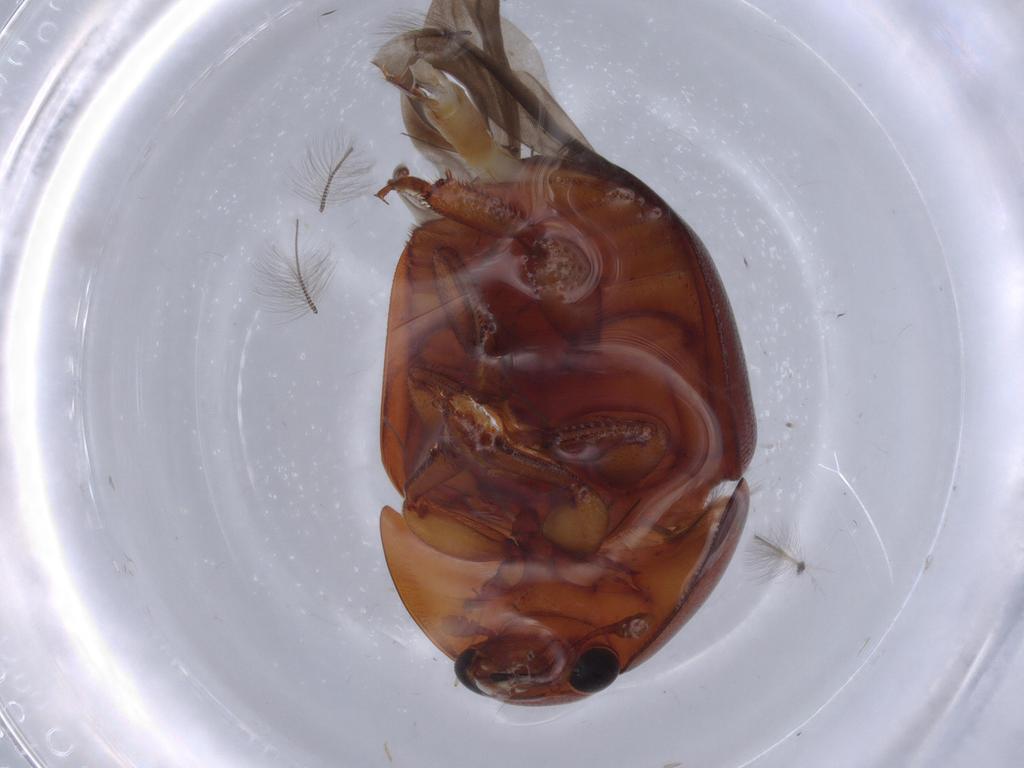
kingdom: Animalia
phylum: Arthropoda
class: Insecta
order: Coleoptera
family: Nitidulidae
